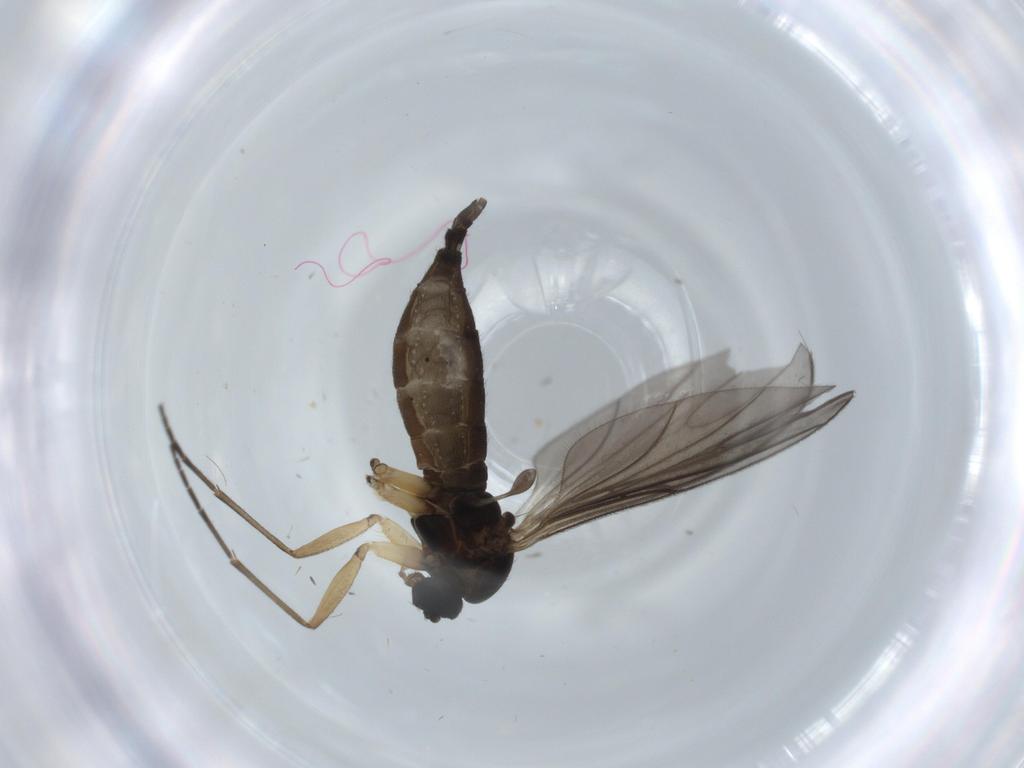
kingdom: Animalia
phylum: Arthropoda
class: Insecta
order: Diptera
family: Sciaridae
